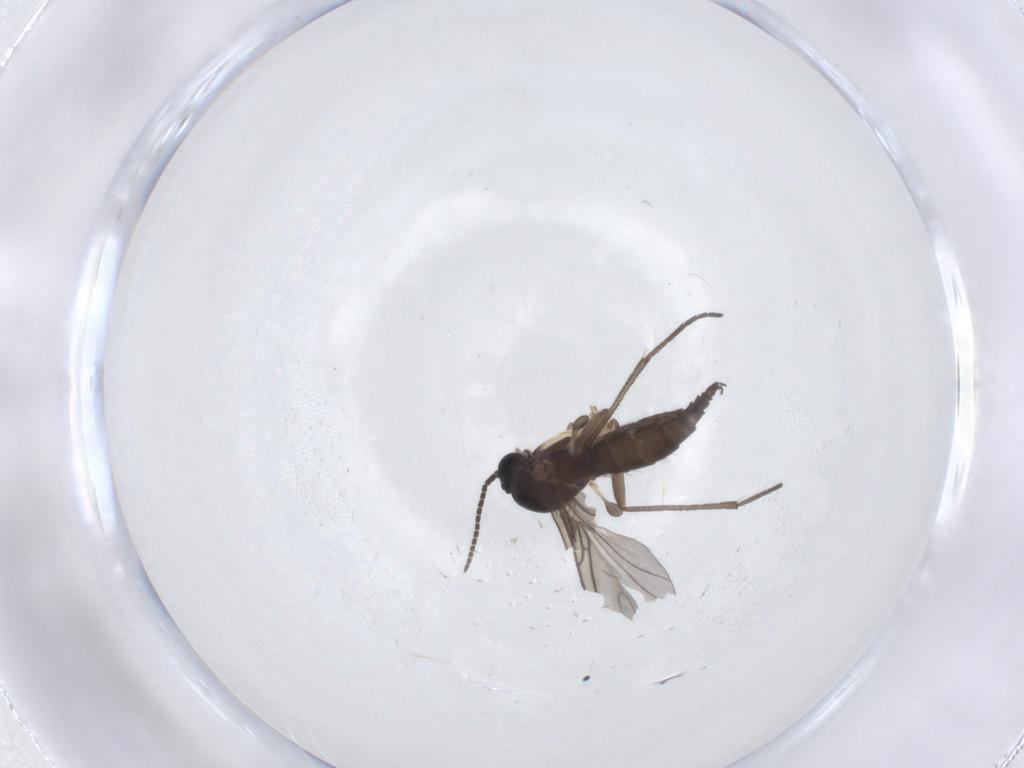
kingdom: Animalia
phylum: Arthropoda
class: Insecta
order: Diptera
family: Sciaridae
